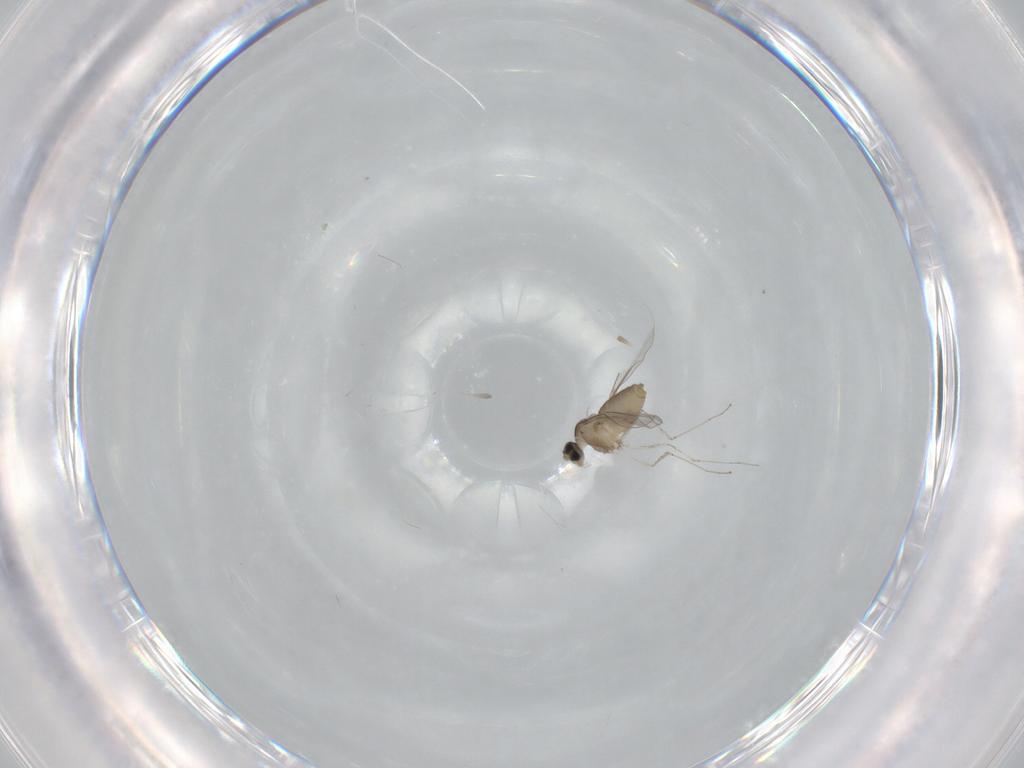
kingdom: Animalia
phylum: Arthropoda
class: Insecta
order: Diptera
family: Cecidomyiidae
